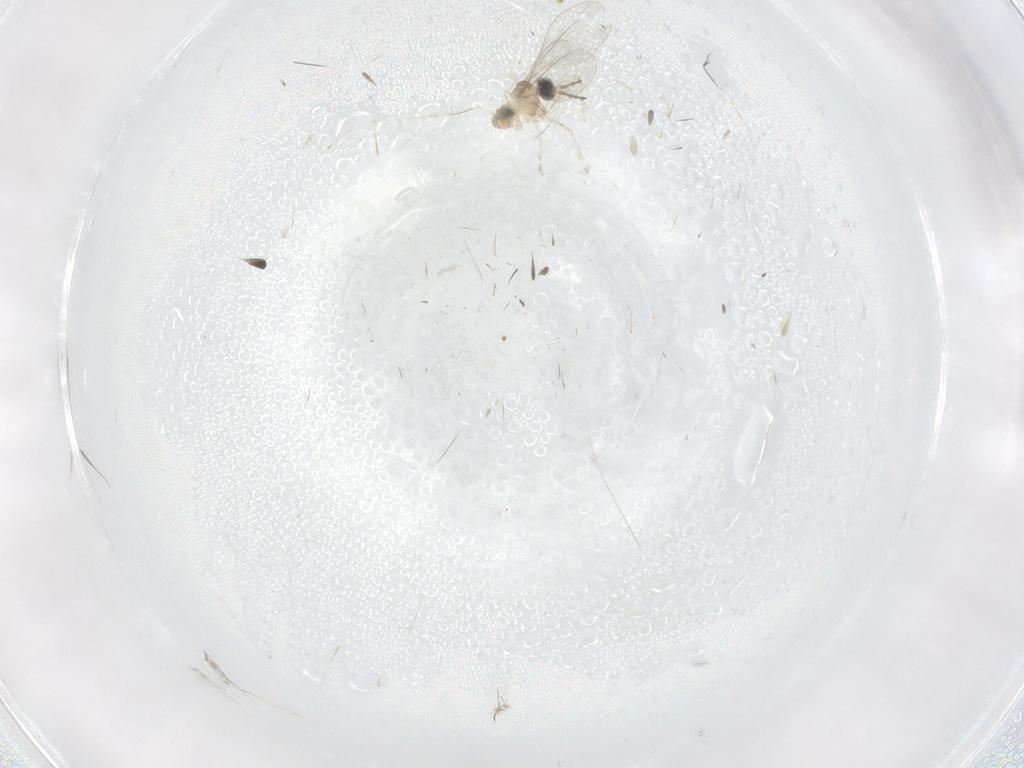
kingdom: Animalia
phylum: Arthropoda
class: Insecta
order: Diptera
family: Cecidomyiidae
